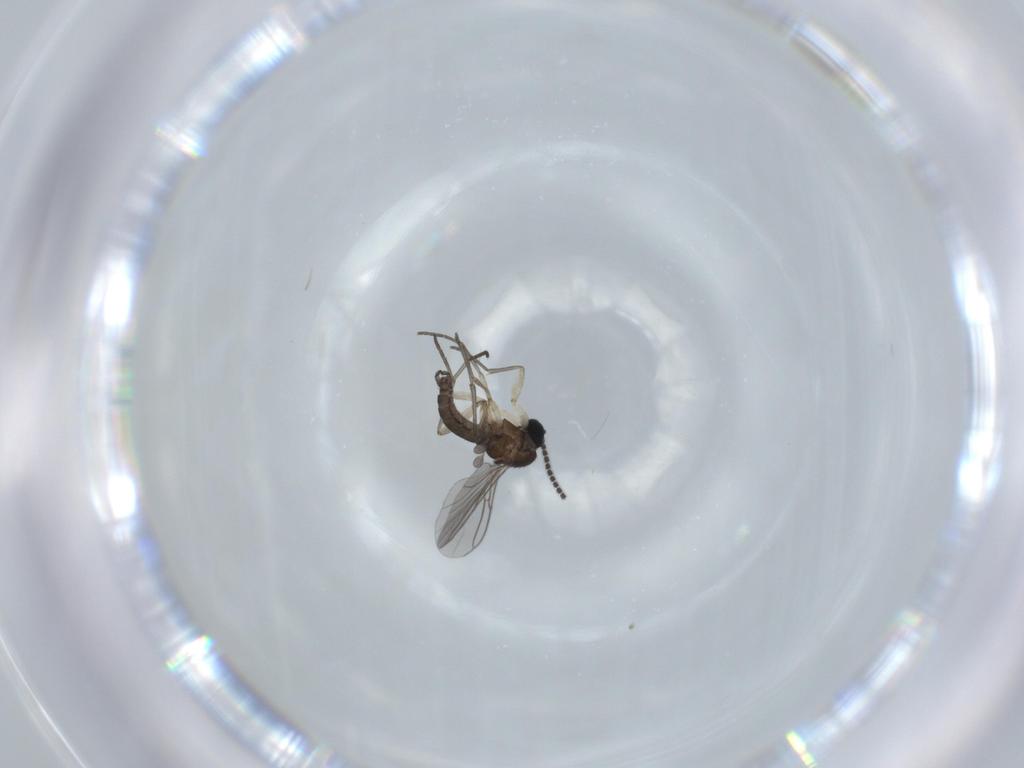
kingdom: Animalia
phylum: Arthropoda
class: Insecta
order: Diptera
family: Sciaridae
